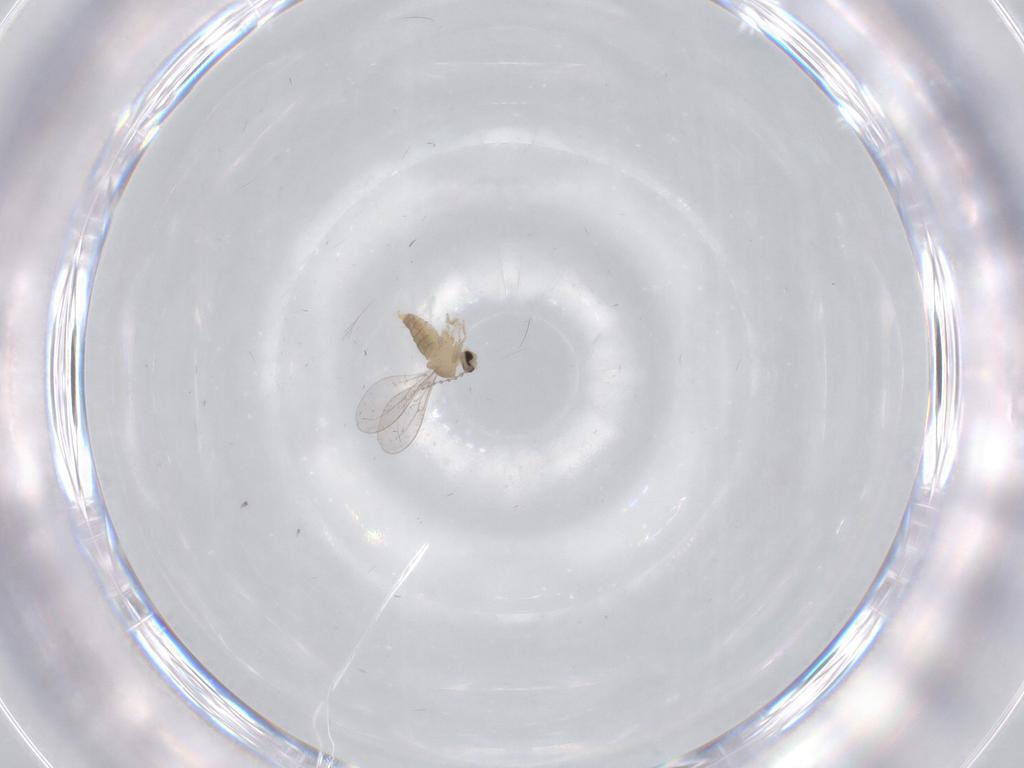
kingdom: Animalia
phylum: Arthropoda
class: Insecta
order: Diptera
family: Cecidomyiidae
